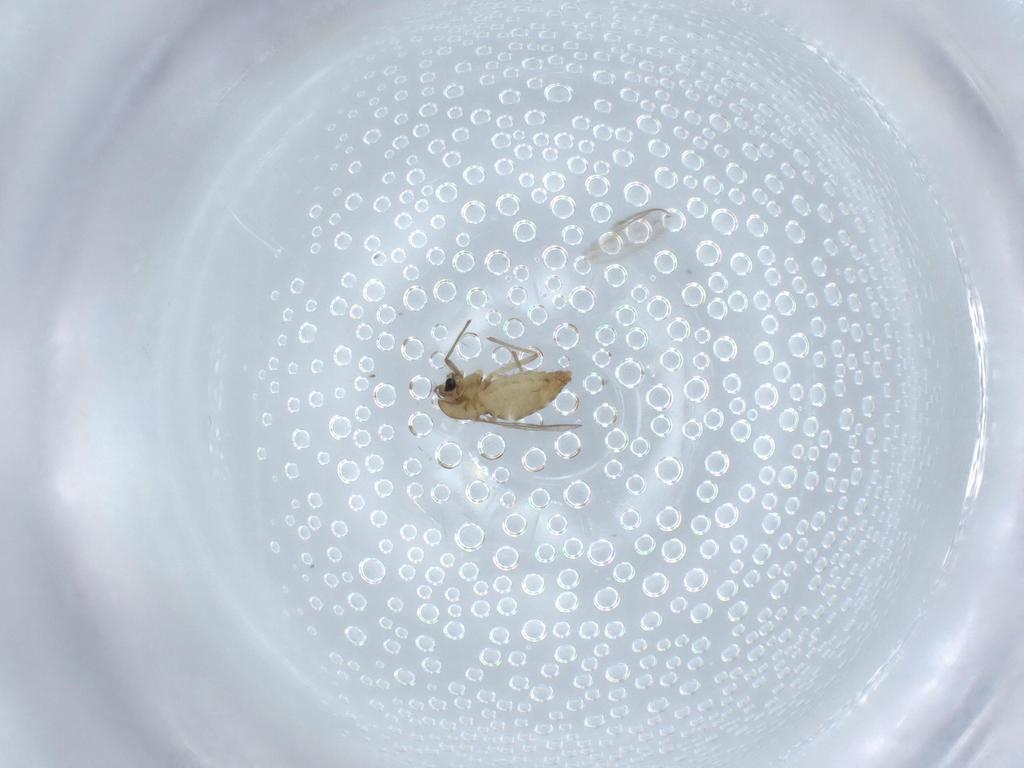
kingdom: Animalia
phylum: Arthropoda
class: Insecta
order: Diptera
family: Chironomidae
